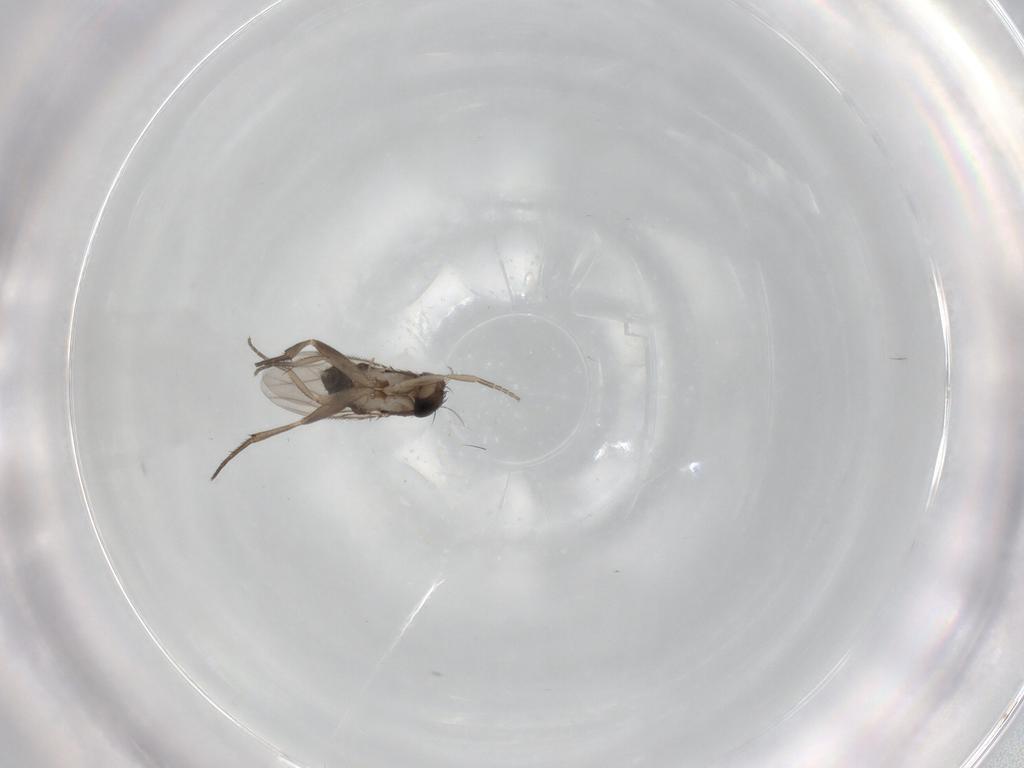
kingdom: Animalia
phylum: Arthropoda
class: Insecta
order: Diptera
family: Phoridae
